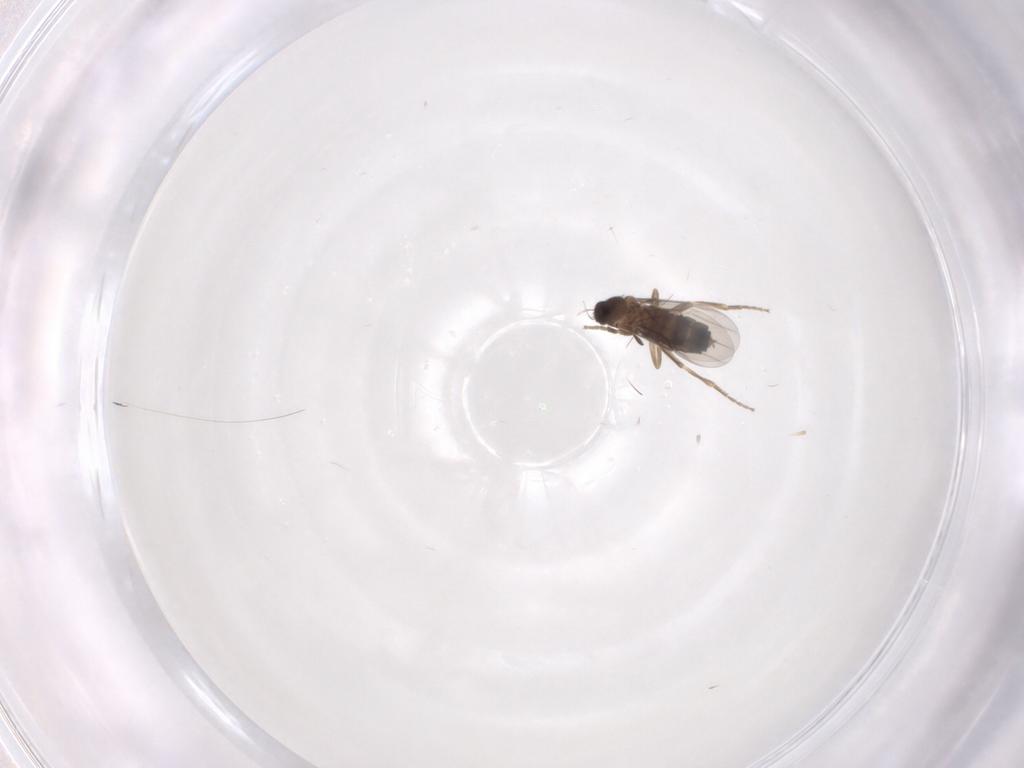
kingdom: Animalia
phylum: Arthropoda
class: Insecta
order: Diptera
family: Phoridae
